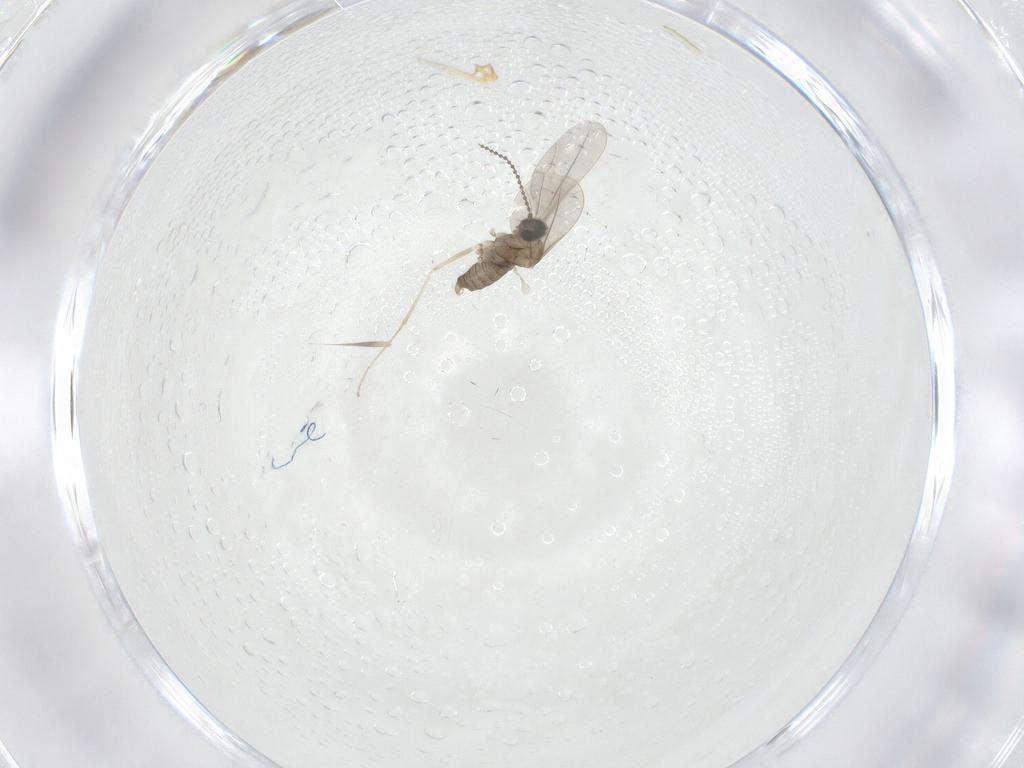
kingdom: Animalia
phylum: Arthropoda
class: Insecta
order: Diptera
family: Cecidomyiidae
